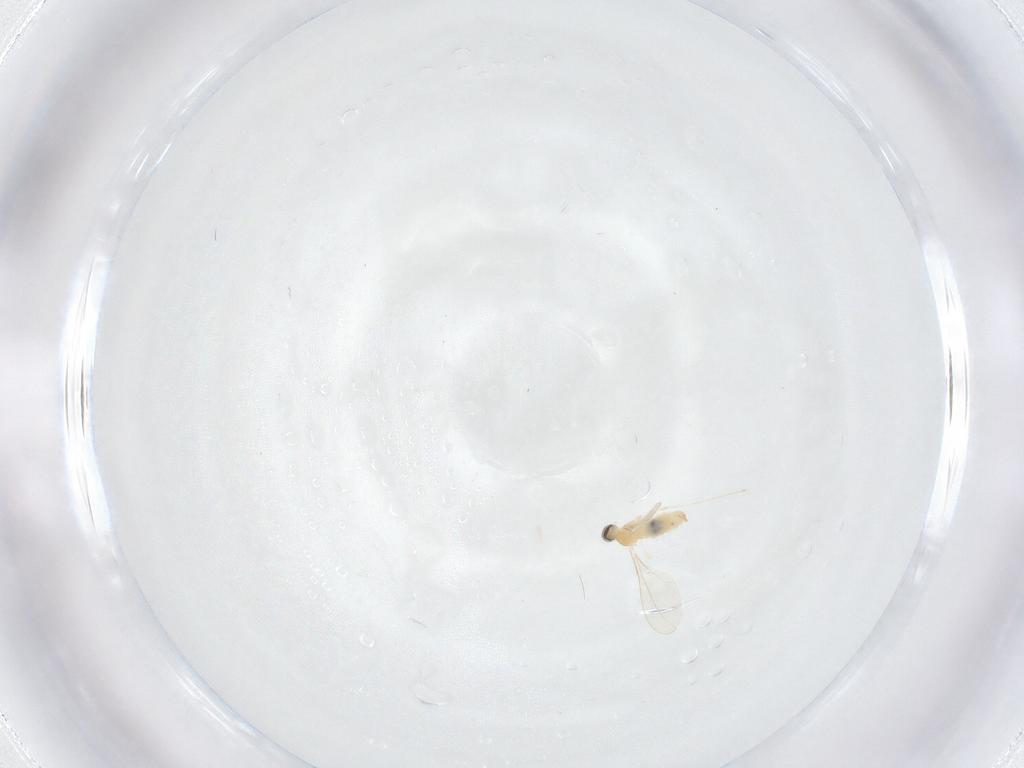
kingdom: Animalia
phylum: Arthropoda
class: Insecta
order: Diptera
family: Cecidomyiidae
